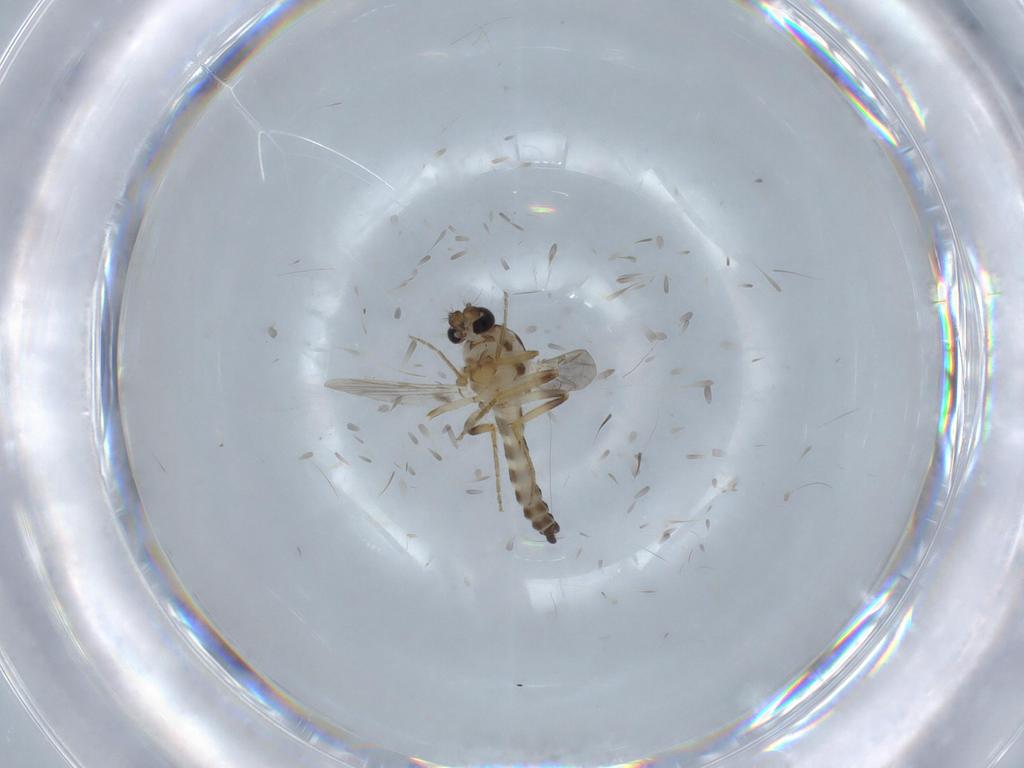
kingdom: Animalia
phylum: Arthropoda
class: Insecta
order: Diptera
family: Ceratopogonidae
